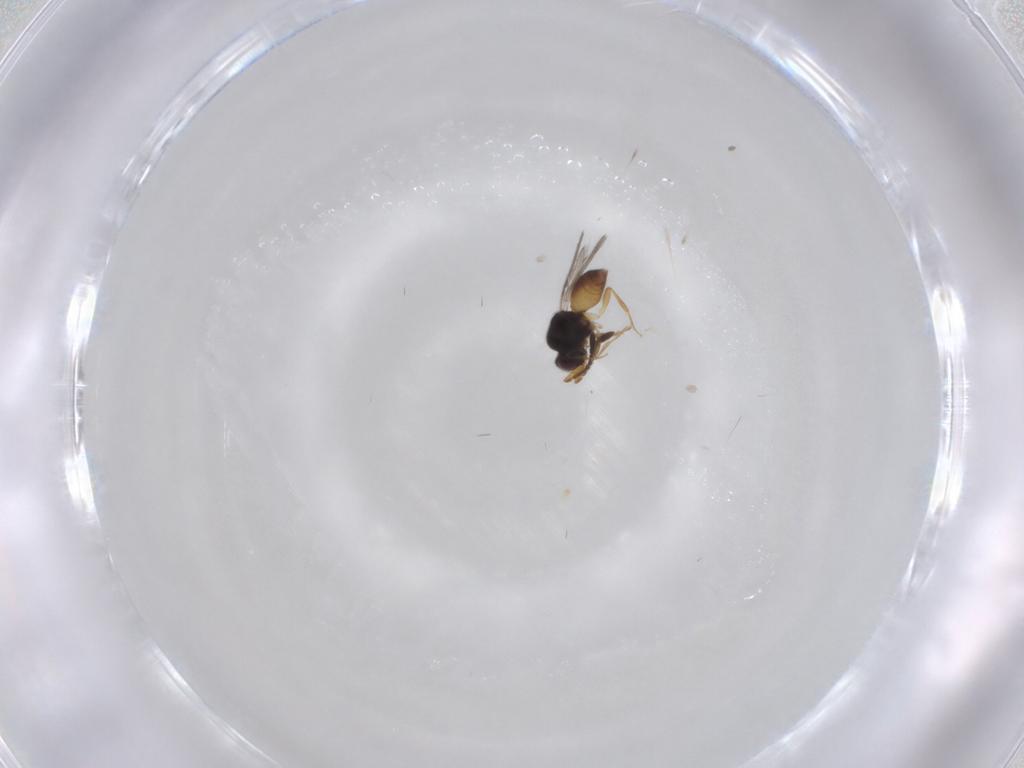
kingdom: Animalia
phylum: Arthropoda
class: Insecta
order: Hymenoptera
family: Ceraphronidae
